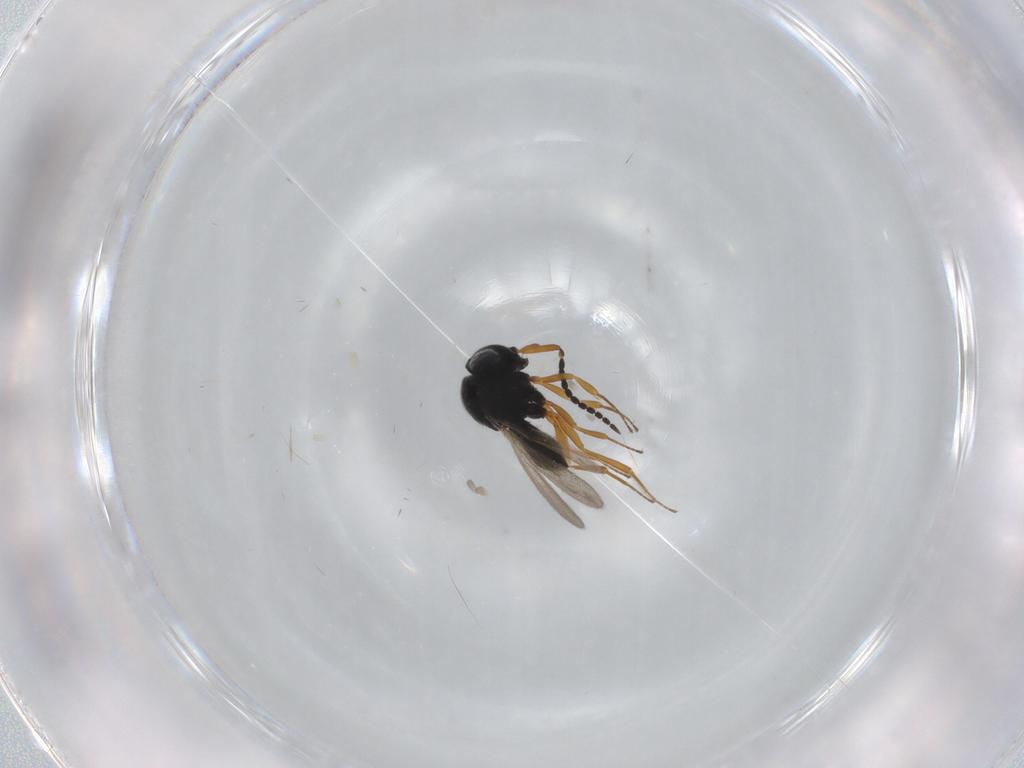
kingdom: Animalia
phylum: Arthropoda
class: Insecta
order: Hymenoptera
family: Scelionidae
